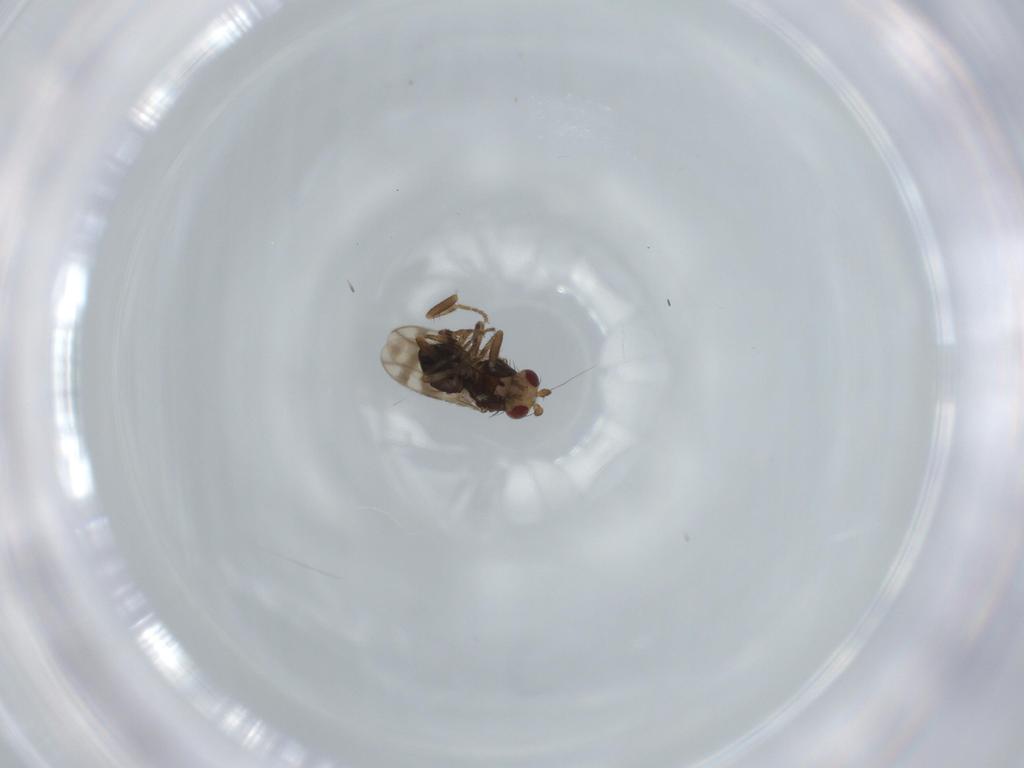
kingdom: Animalia
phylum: Arthropoda
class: Insecta
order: Diptera
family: Sphaeroceridae
